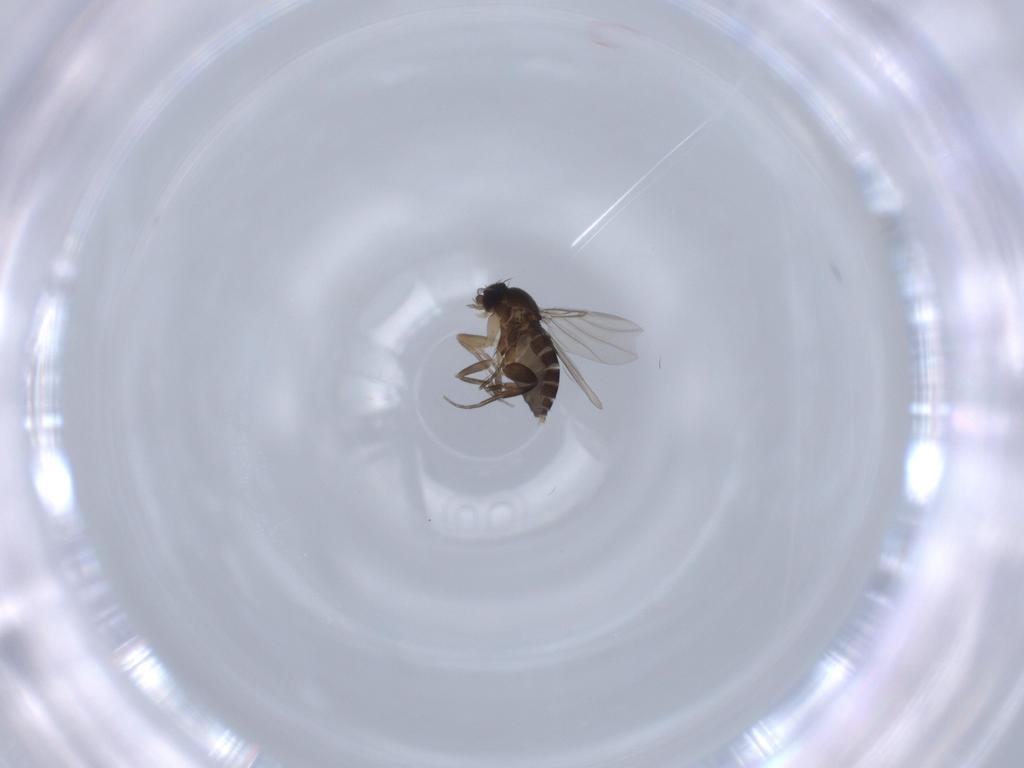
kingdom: Animalia
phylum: Arthropoda
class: Insecta
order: Diptera
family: Phoridae
